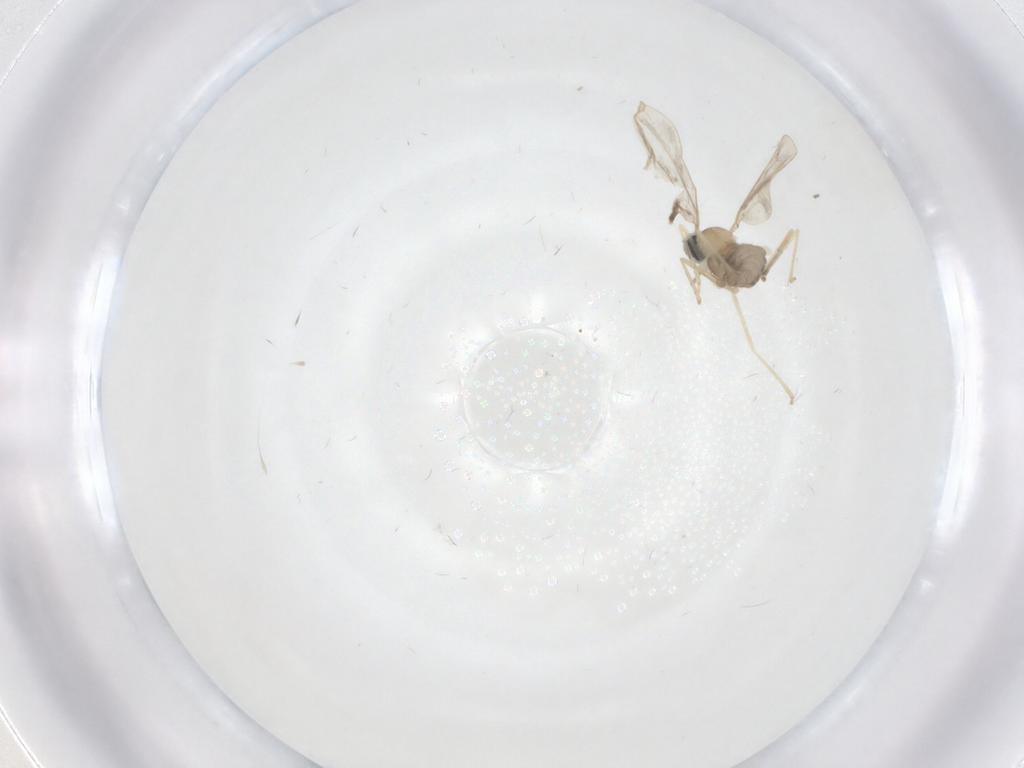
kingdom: Animalia
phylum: Arthropoda
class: Insecta
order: Diptera
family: Cecidomyiidae
